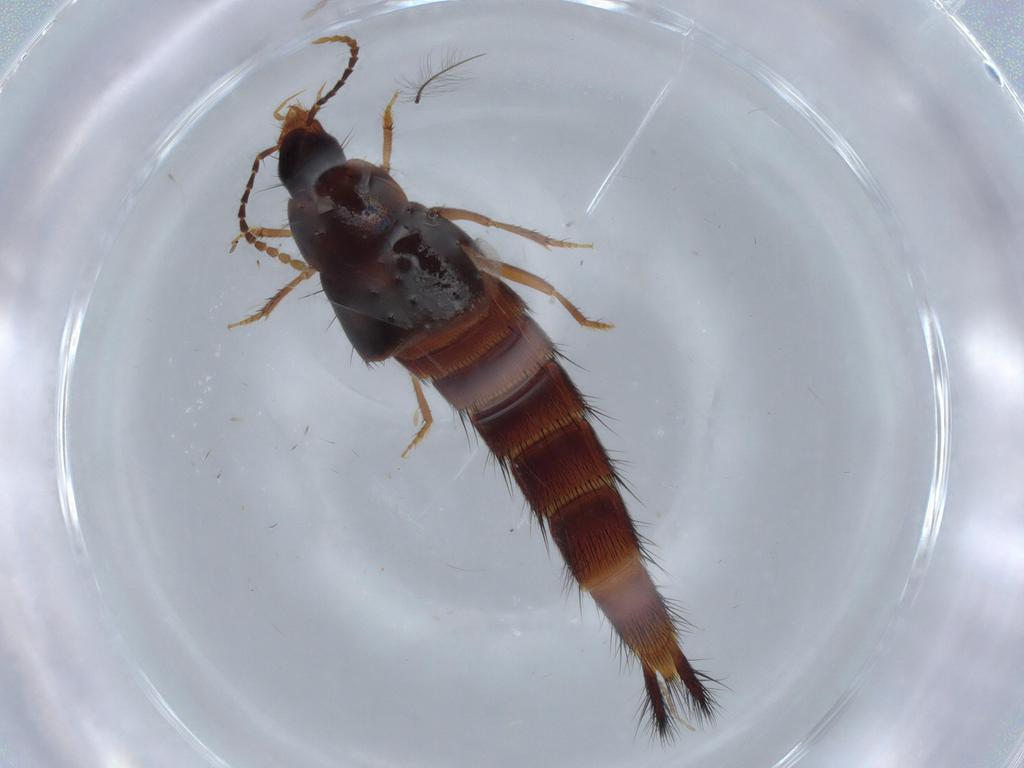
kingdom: Animalia
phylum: Arthropoda
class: Insecta
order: Coleoptera
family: Staphylinidae
